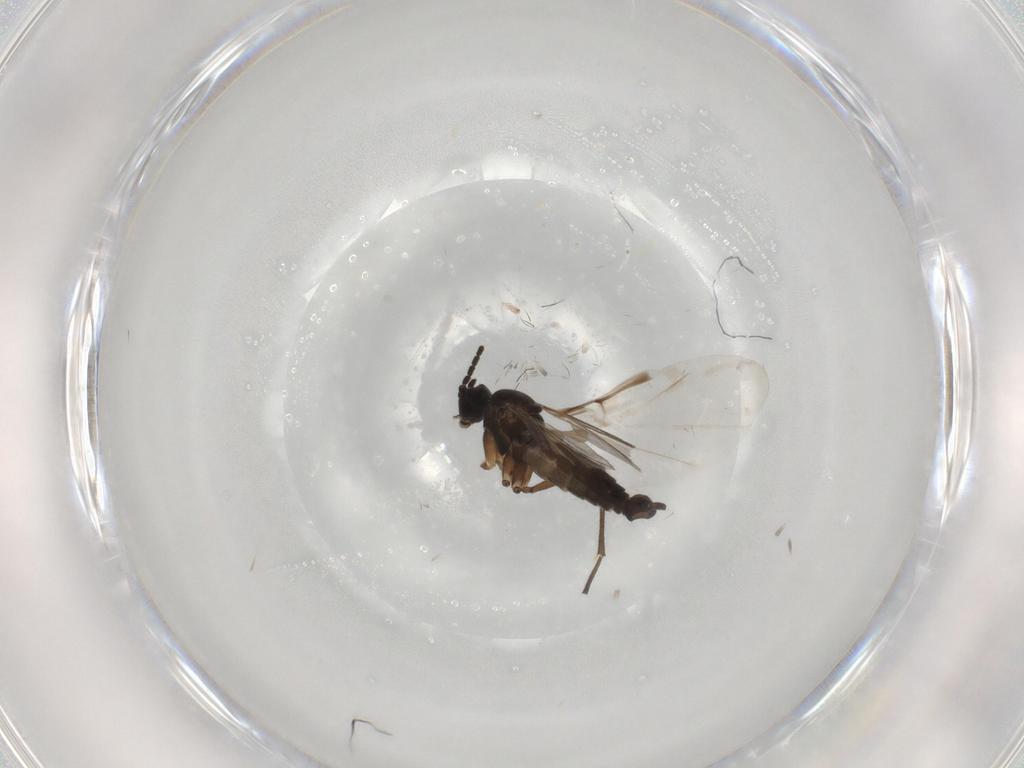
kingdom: Animalia
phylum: Arthropoda
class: Insecta
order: Diptera
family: Sciaridae
